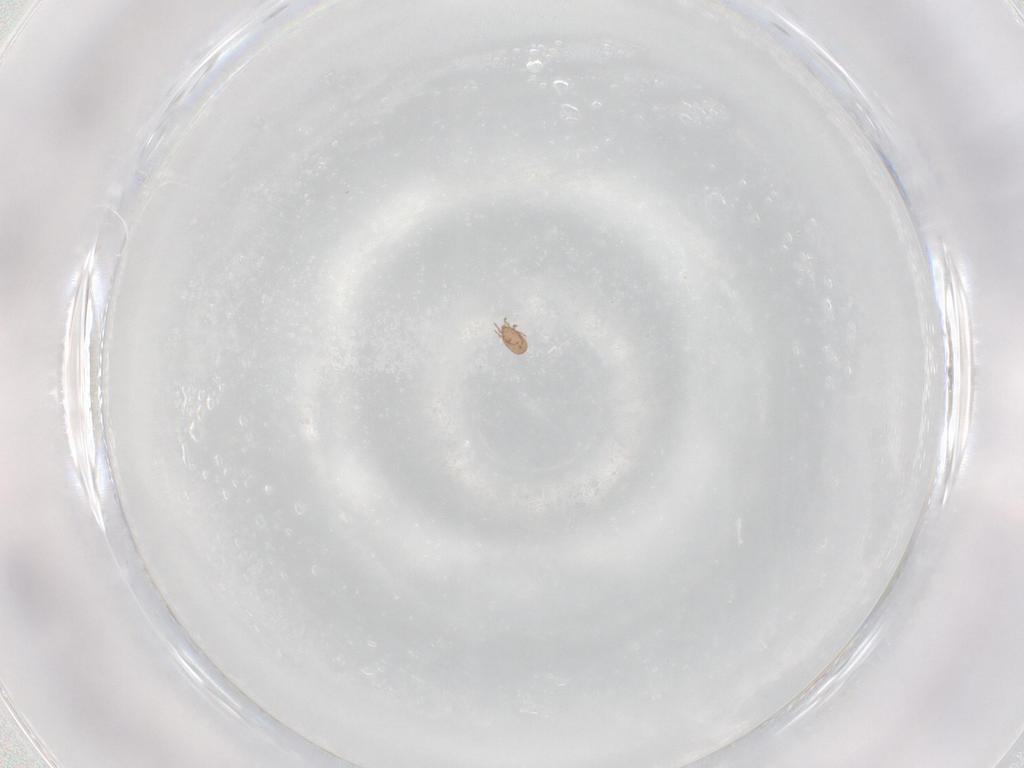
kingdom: Animalia
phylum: Arthropoda
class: Arachnida
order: Sarcoptiformes
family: Eremaeidae
